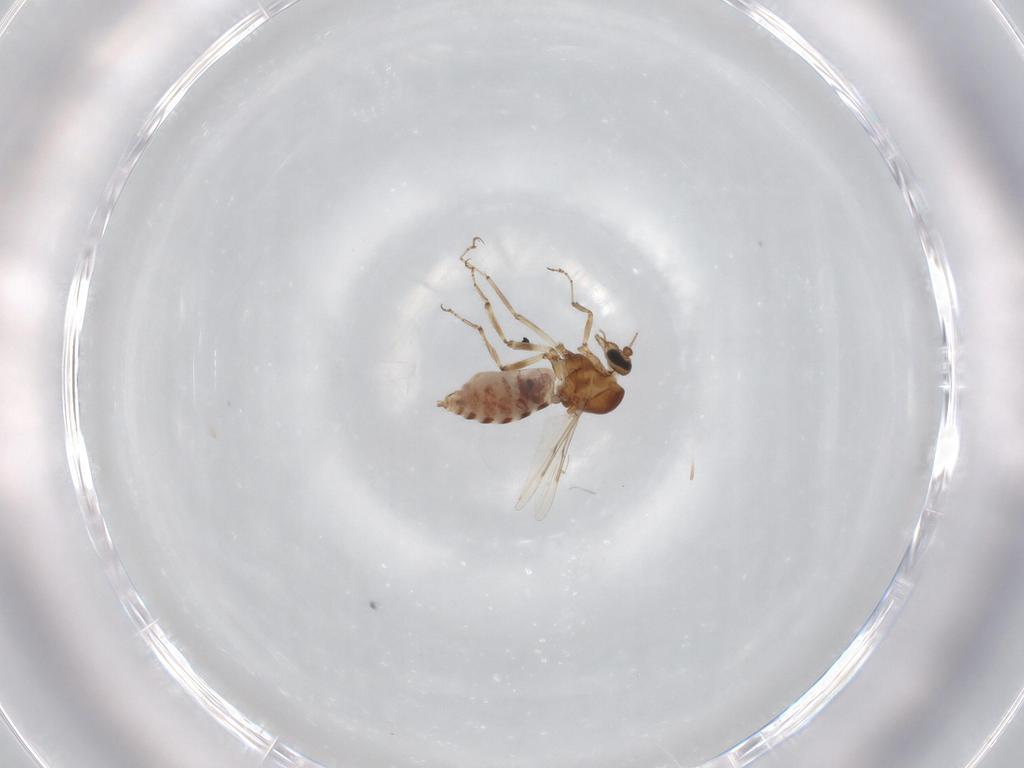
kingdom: Animalia
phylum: Arthropoda
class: Insecta
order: Diptera
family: Ceratopogonidae
